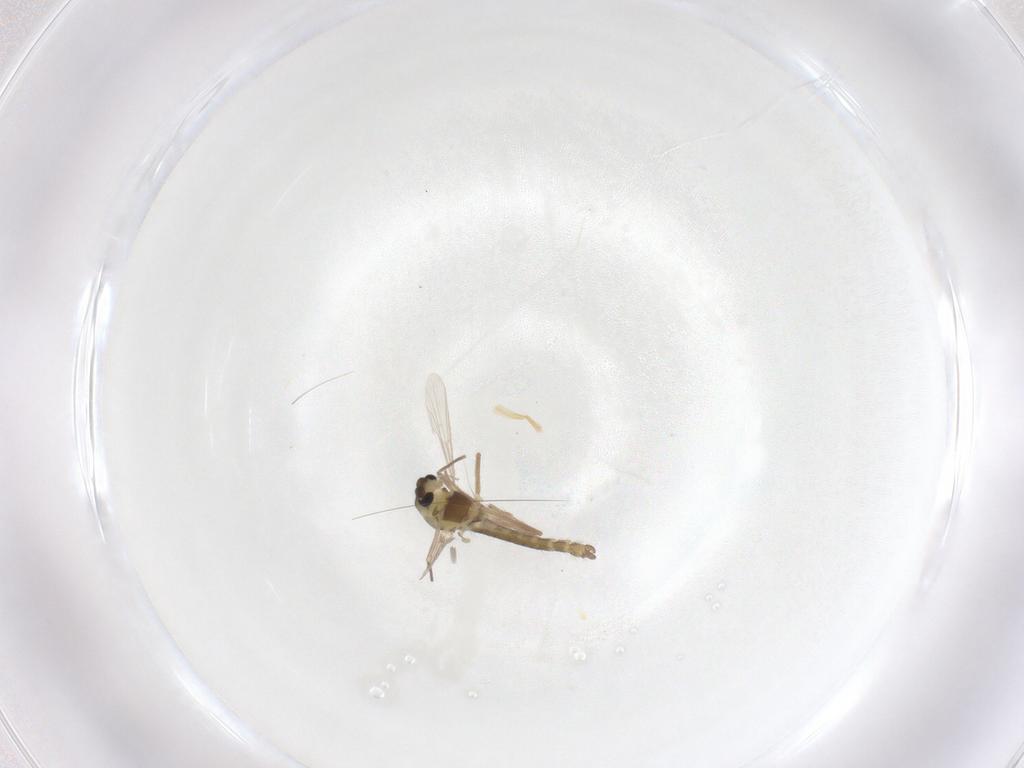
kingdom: Animalia
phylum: Arthropoda
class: Insecta
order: Diptera
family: Chironomidae
